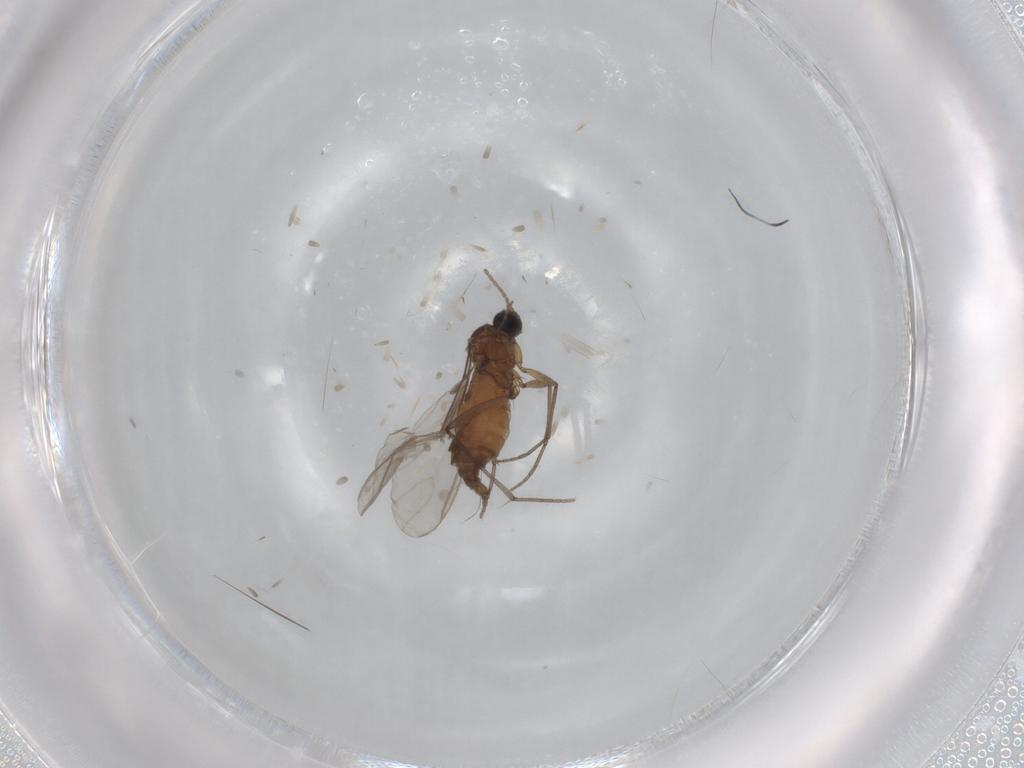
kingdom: Animalia
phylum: Arthropoda
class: Insecta
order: Diptera
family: Sciaridae
